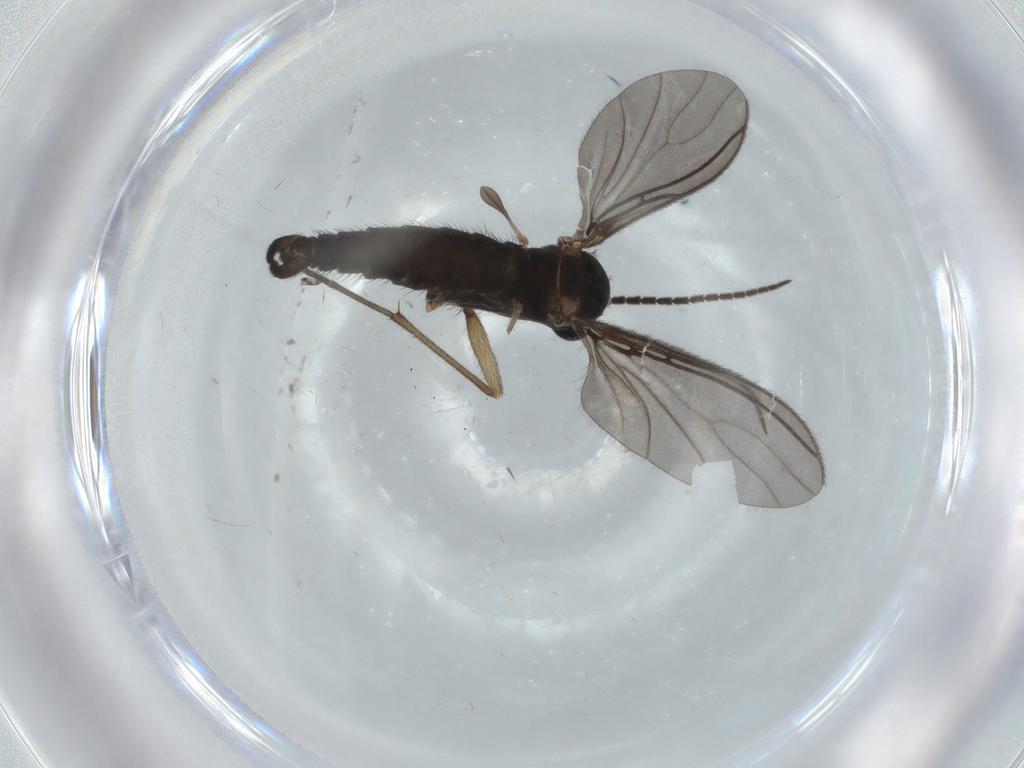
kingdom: Animalia
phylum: Arthropoda
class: Insecta
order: Diptera
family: Sciaridae
